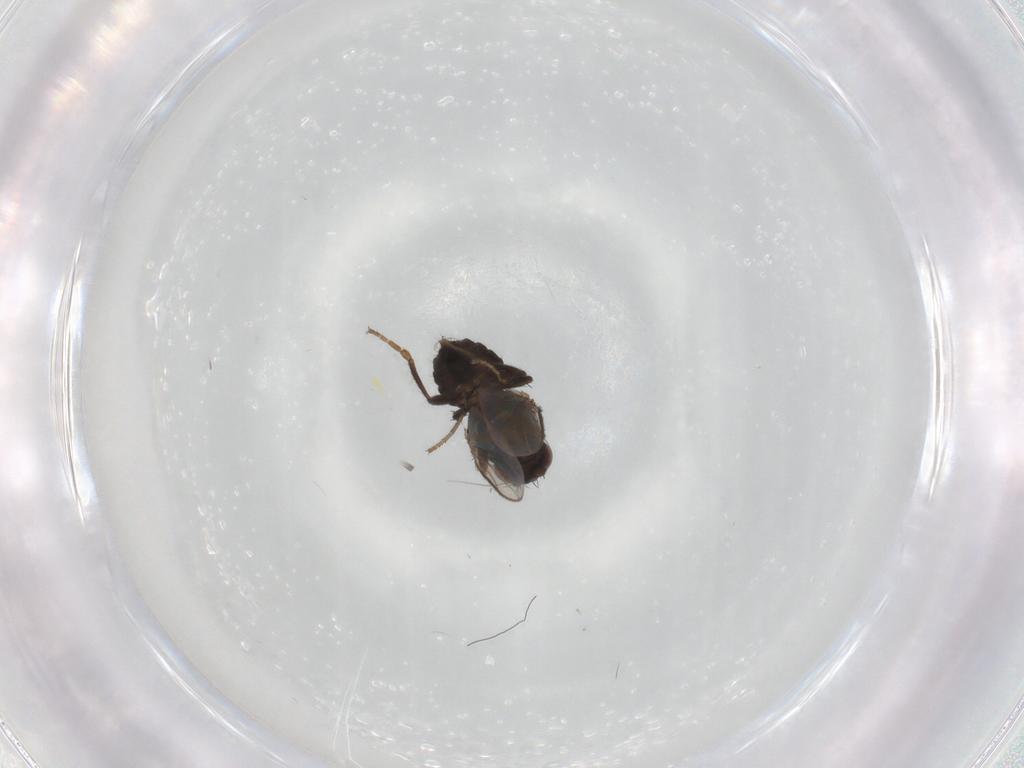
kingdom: Animalia
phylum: Arthropoda
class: Insecta
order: Diptera
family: Sphaeroceridae
